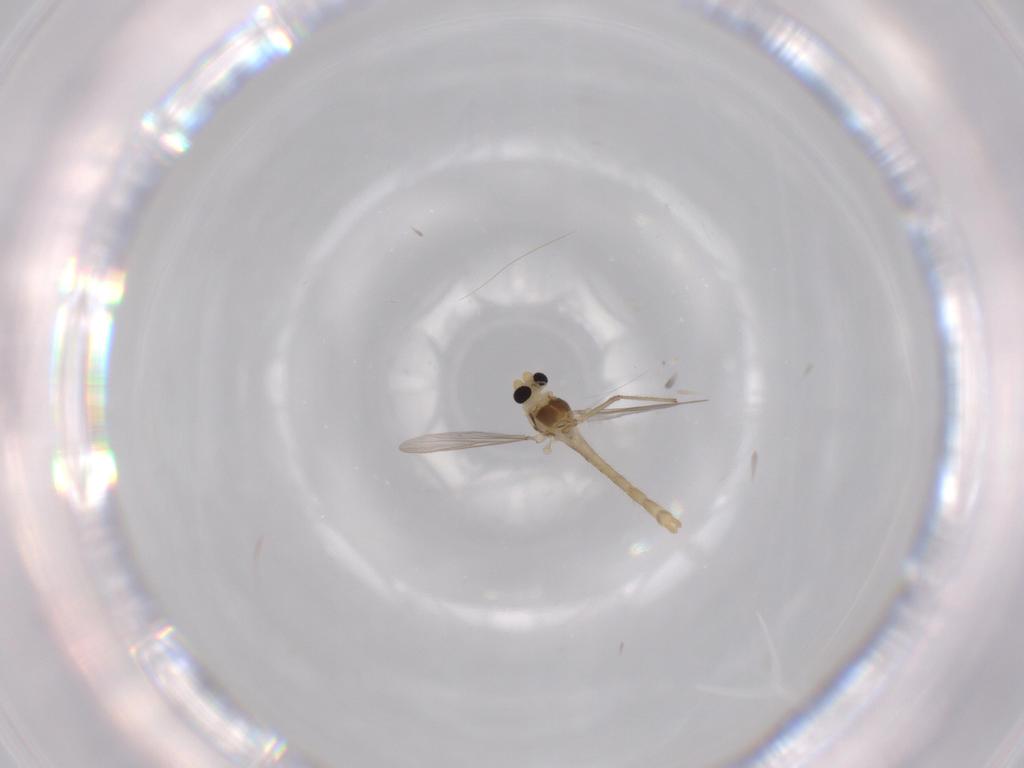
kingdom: Animalia
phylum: Arthropoda
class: Insecta
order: Diptera
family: Chironomidae
